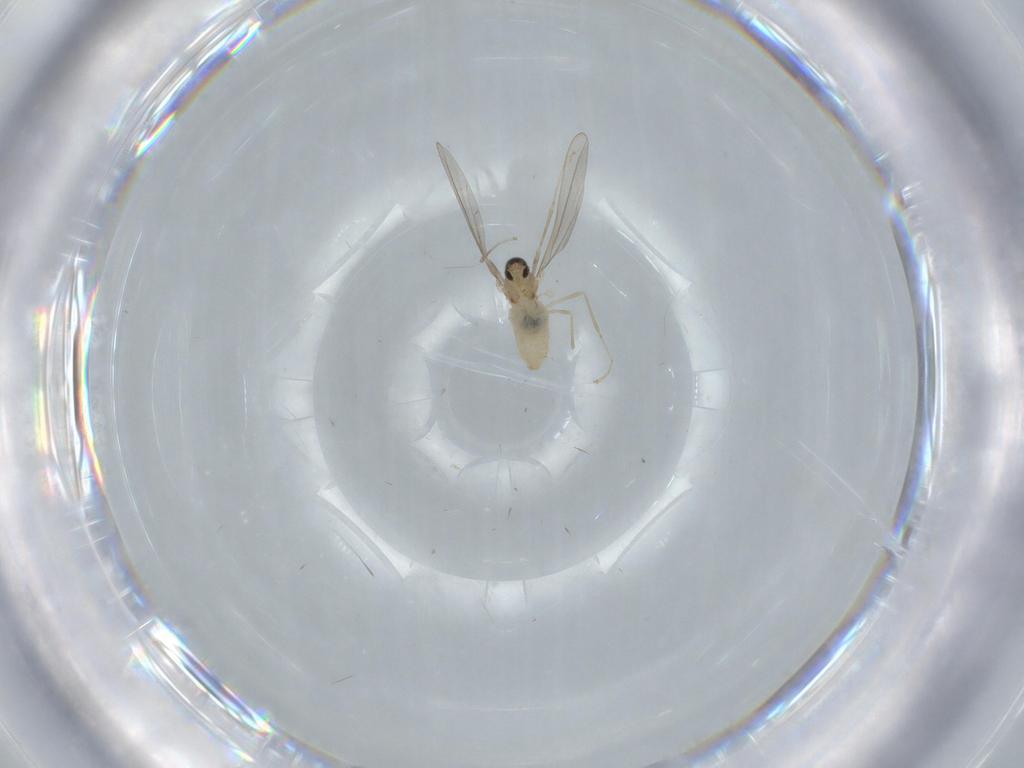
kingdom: Animalia
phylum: Arthropoda
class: Insecta
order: Diptera
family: Cecidomyiidae
